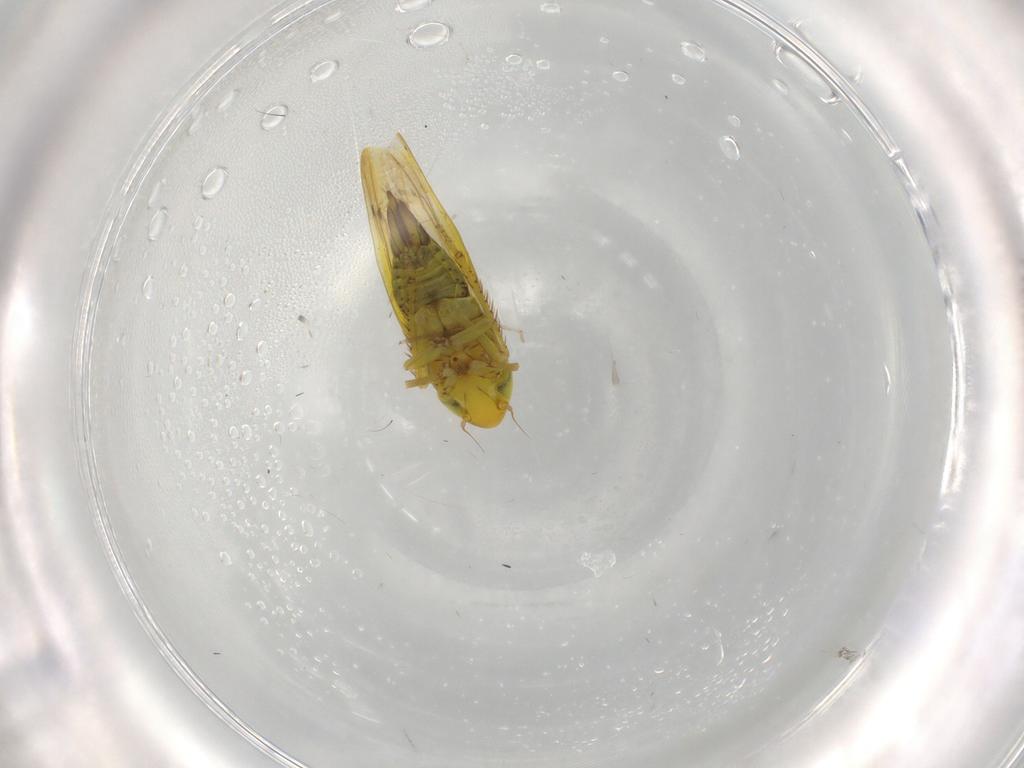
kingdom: Animalia
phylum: Arthropoda
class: Insecta
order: Hemiptera
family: Cicadellidae
